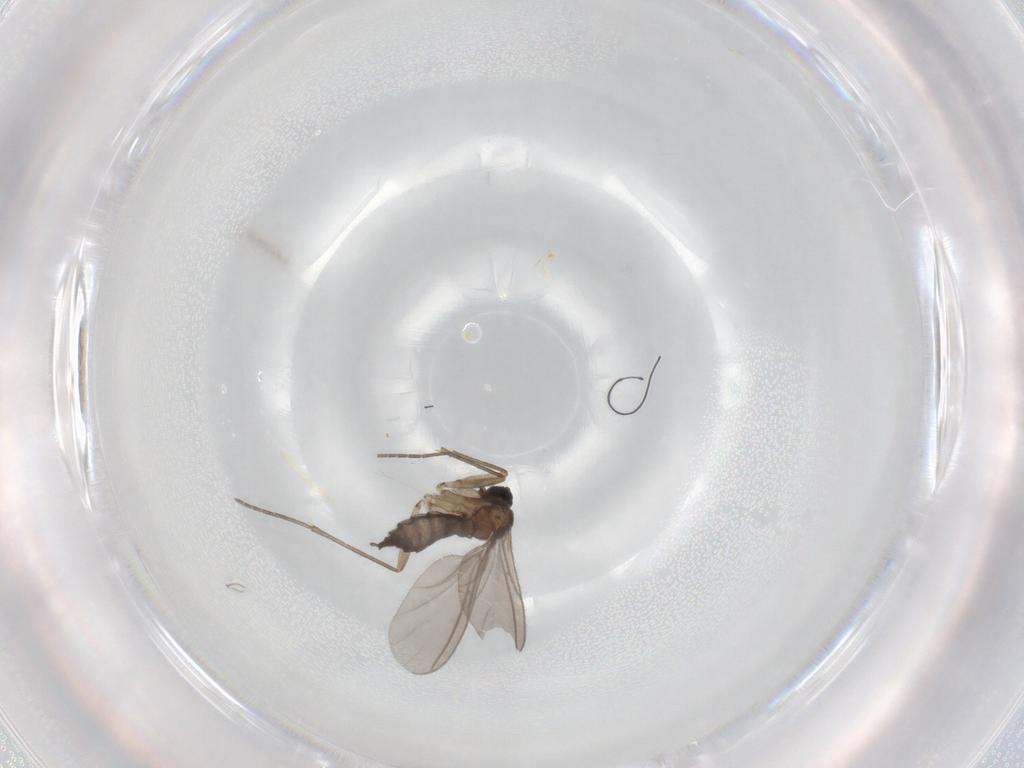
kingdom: Animalia
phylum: Arthropoda
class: Insecta
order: Diptera
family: Sciaridae
